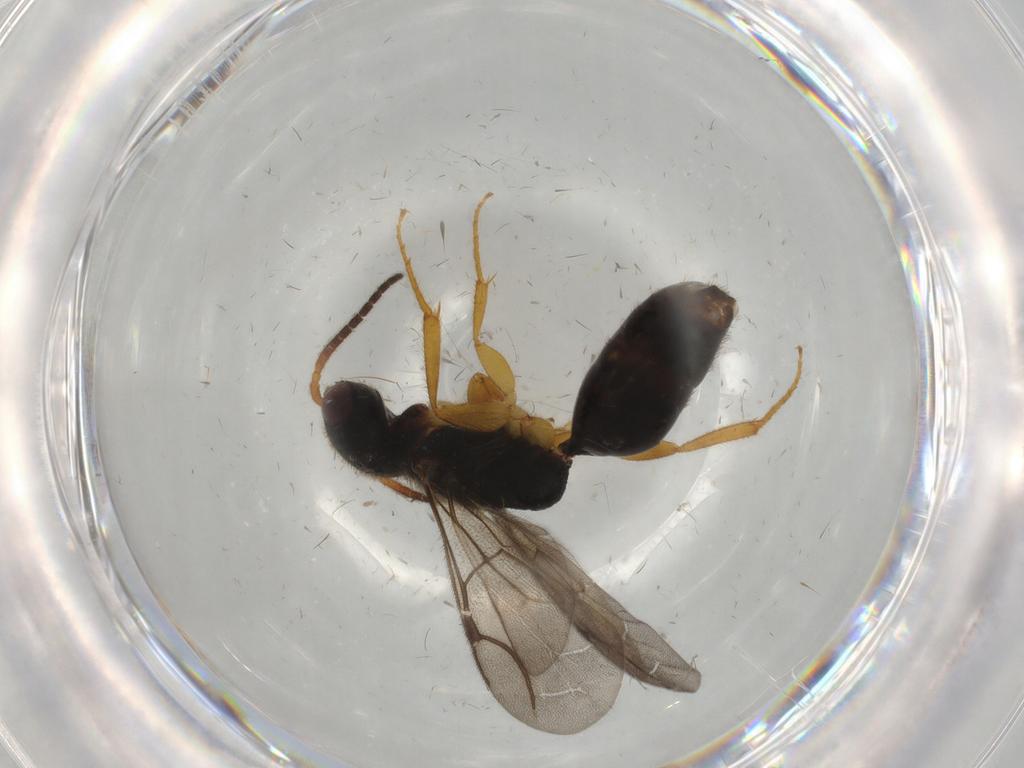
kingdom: Animalia
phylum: Arthropoda
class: Insecta
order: Hymenoptera
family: Bethylidae
